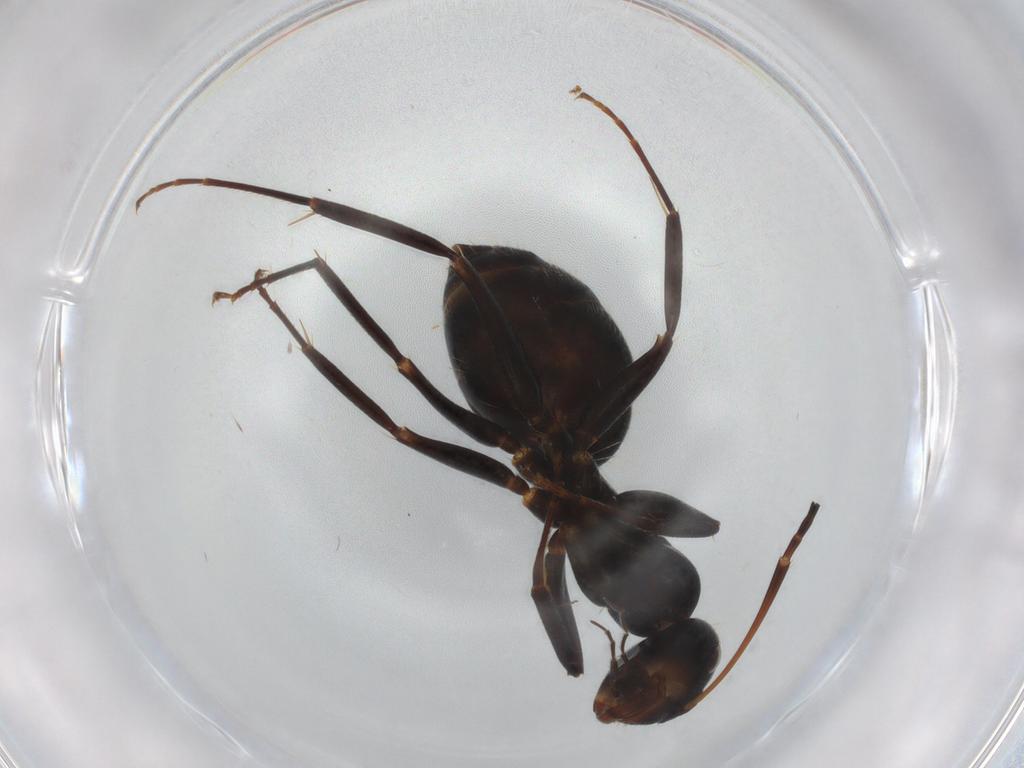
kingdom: Animalia
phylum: Arthropoda
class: Insecta
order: Hymenoptera
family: Formicidae
